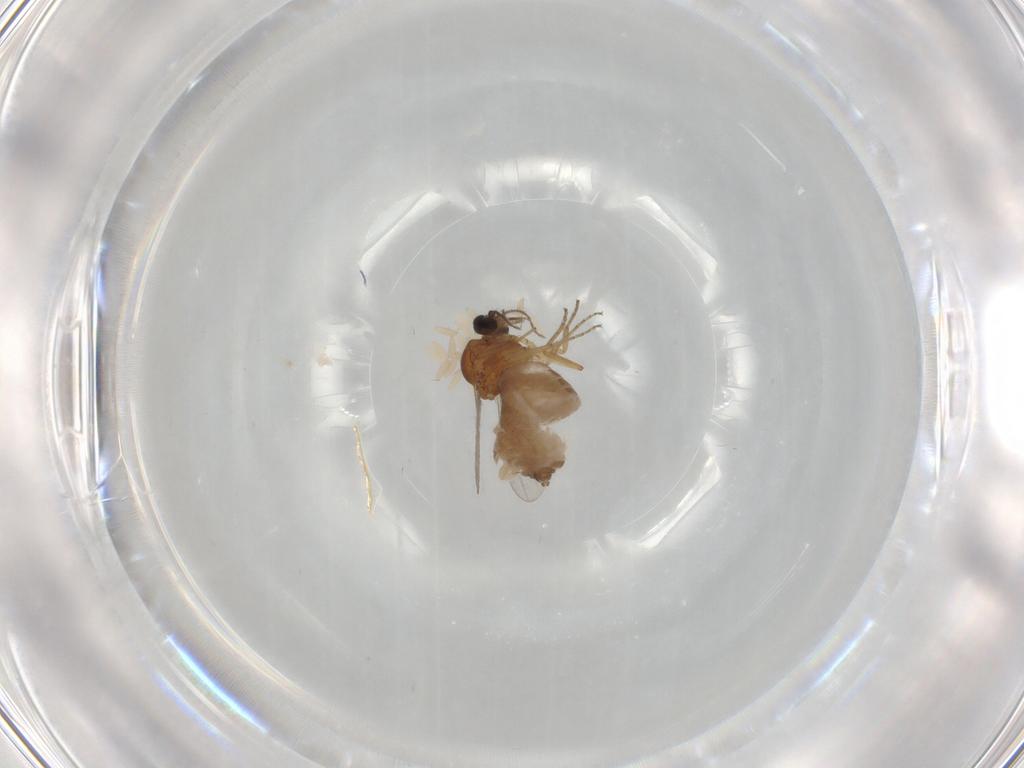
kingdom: Animalia
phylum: Arthropoda
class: Insecta
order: Diptera
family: Ceratopogonidae
